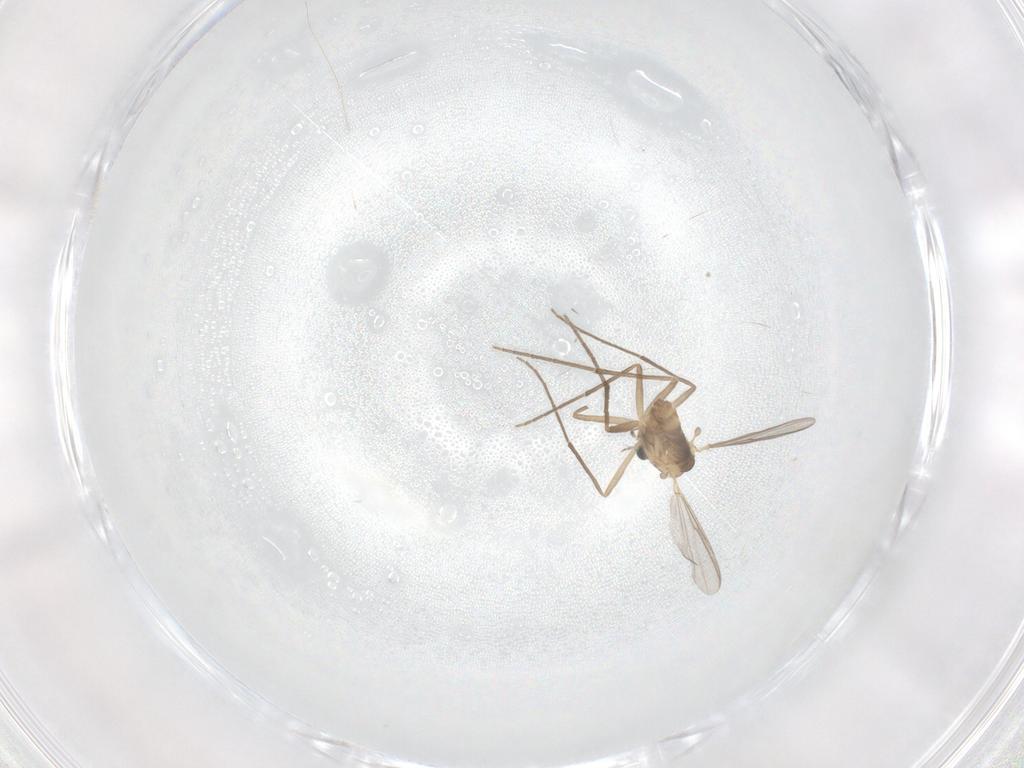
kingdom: Animalia
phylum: Arthropoda
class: Insecta
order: Diptera
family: Chironomidae
